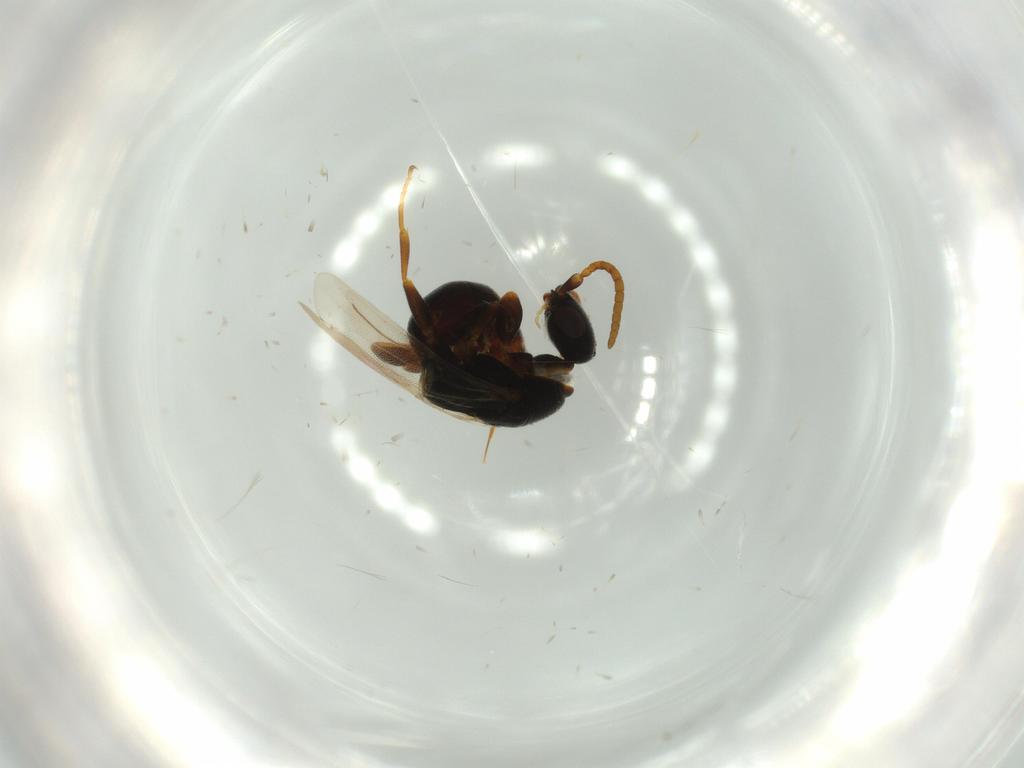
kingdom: Animalia
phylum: Arthropoda
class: Insecta
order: Hymenoptera
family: Bethylidae
